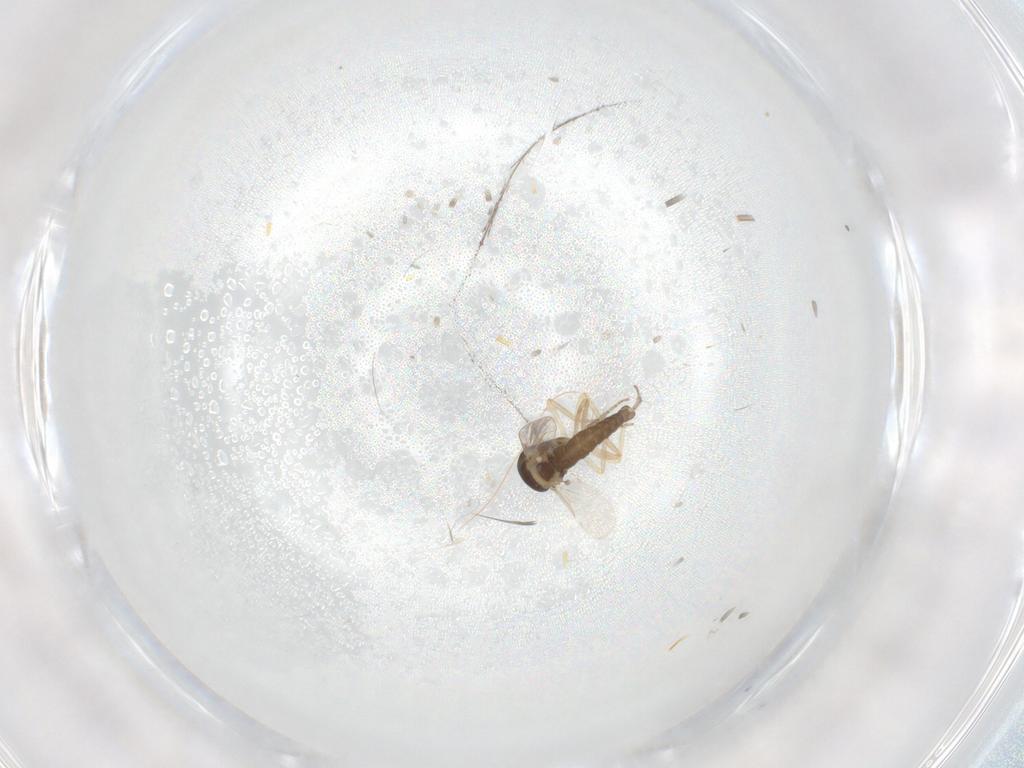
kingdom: Animalia
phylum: Arthropoda
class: Insecta
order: Diptera
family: Ceratopogonidae
